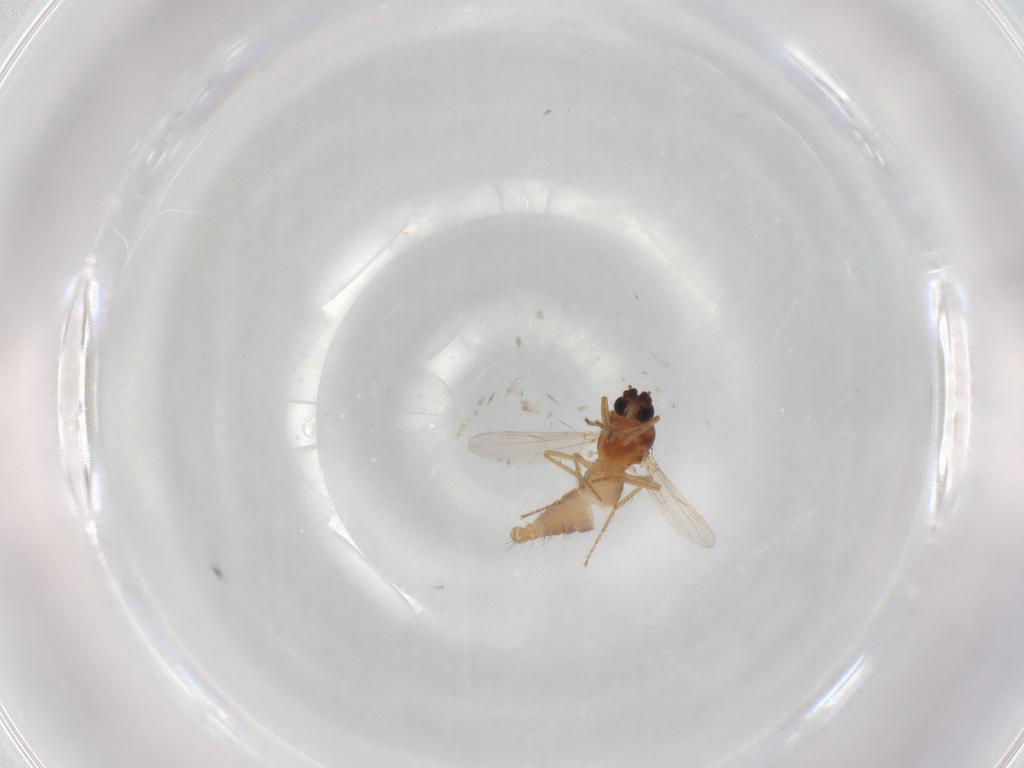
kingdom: Animalia
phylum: Arthropoda
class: Insecta
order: Diptera
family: Ceratopogonidae
